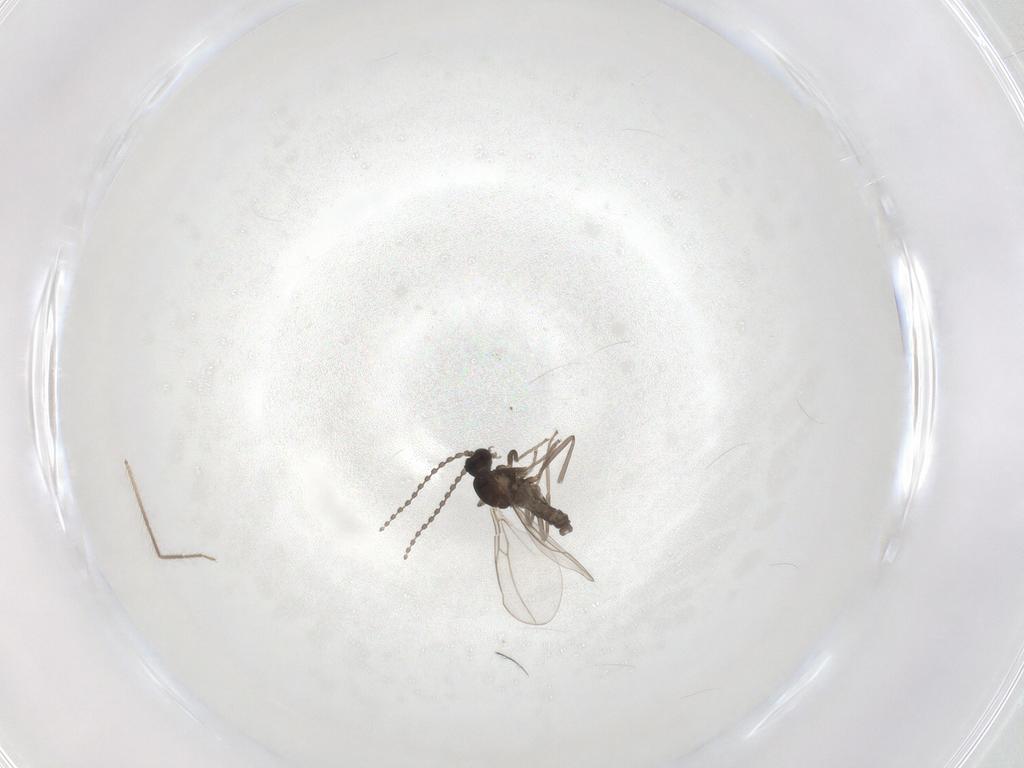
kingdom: Animalia
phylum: Arthropoda
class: Insecta
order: Diptera
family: Cecidomyiidae
